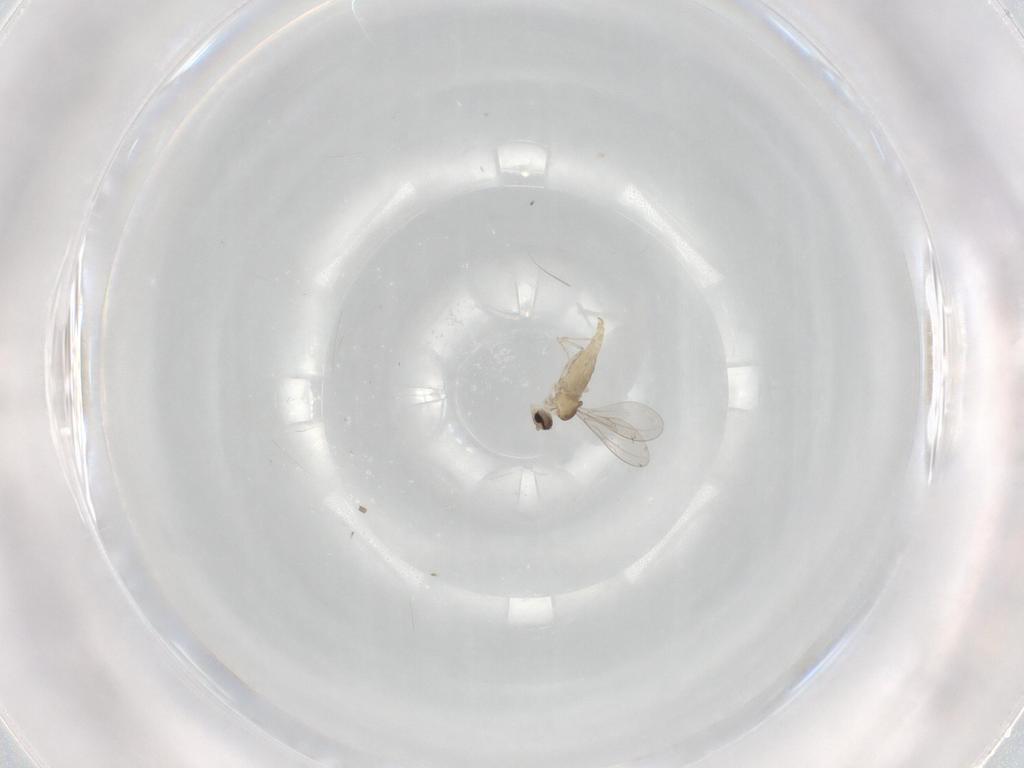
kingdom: Animalia
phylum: Arthropoda
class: Insecta
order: Diptera
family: Cecidomyiidae
